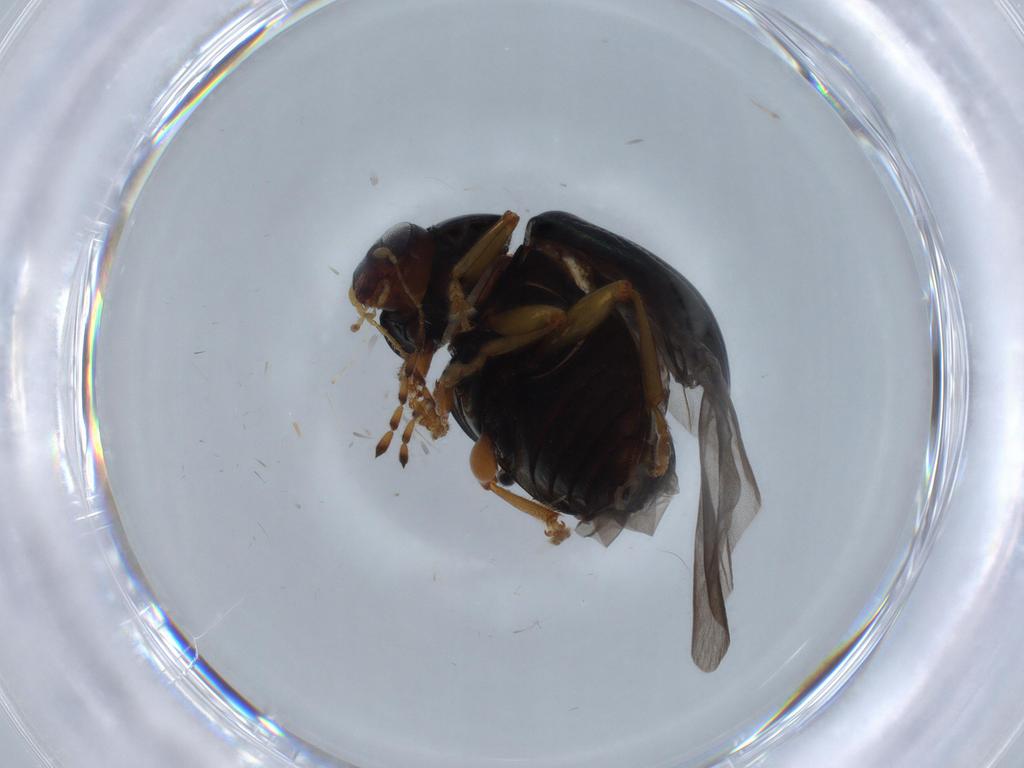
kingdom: Animalia
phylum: Arthropoda
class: Insecta
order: Coleoptera
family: Chrysomelidae
